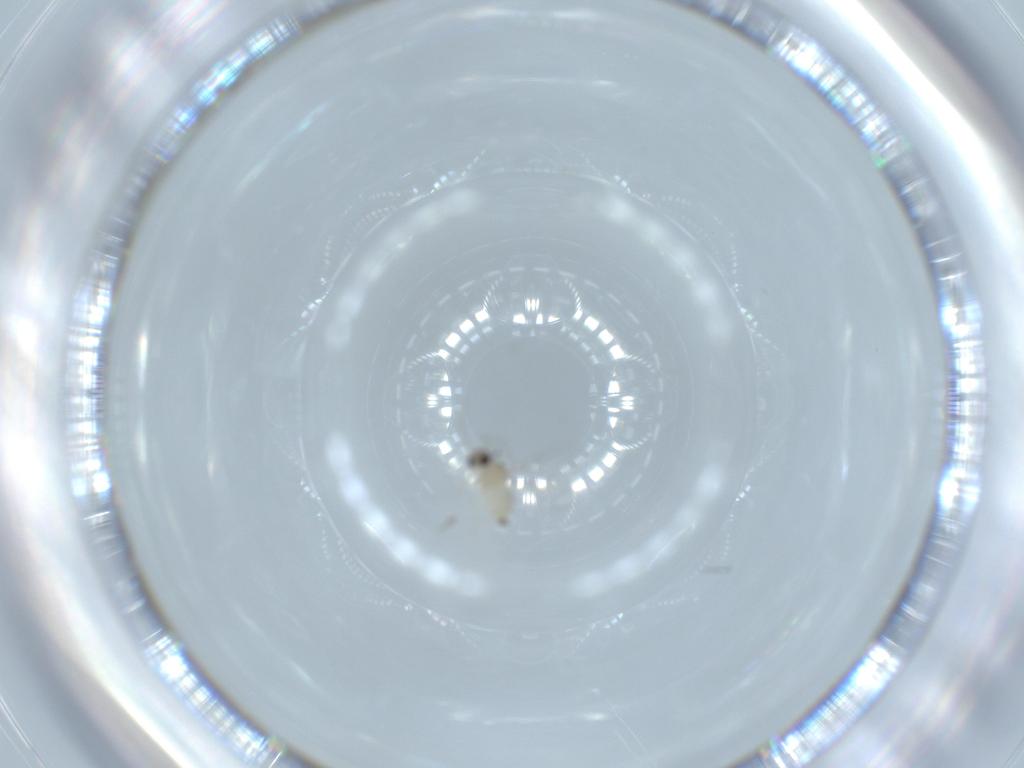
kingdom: Animalia
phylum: Arthropoda
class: Insecta
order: Diptera
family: Cecidomyiidae
